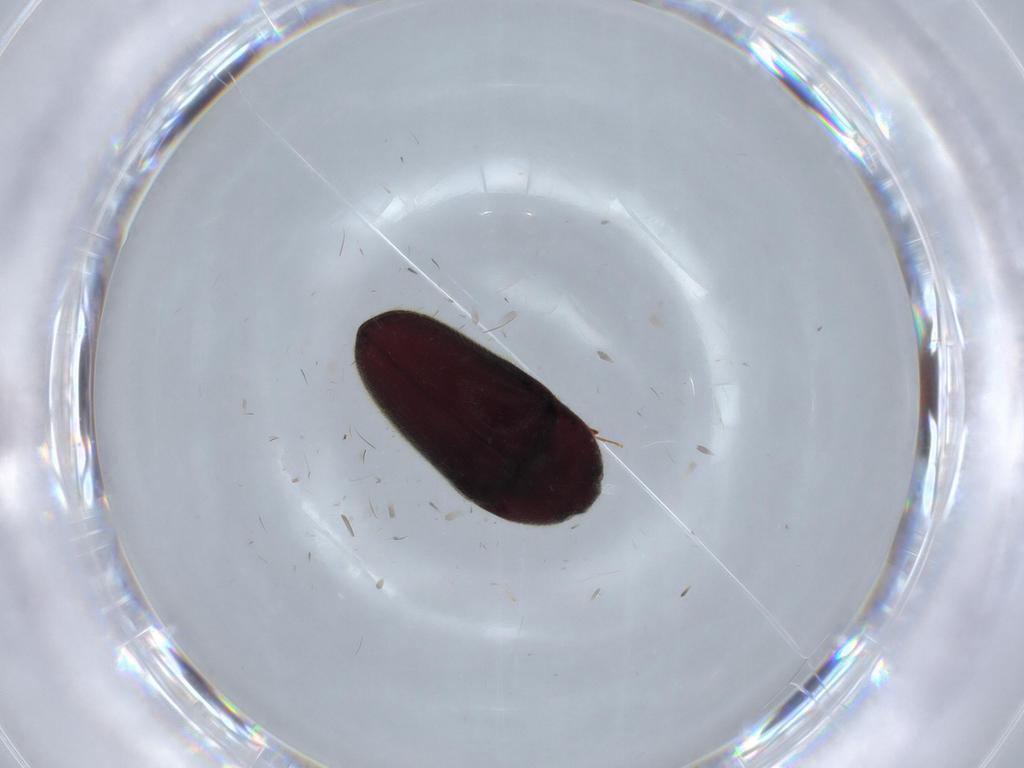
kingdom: Animalia
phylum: Arthropoda
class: Insecta
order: Coleoptera
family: Throscidae
